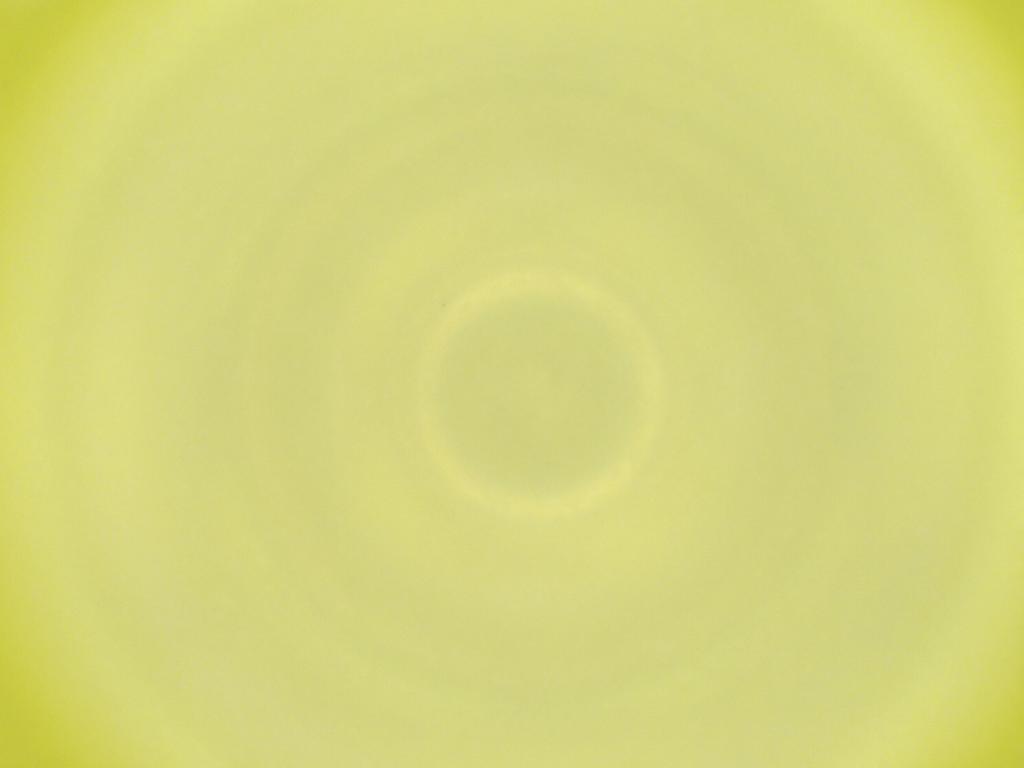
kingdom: Animalia
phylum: Arthropoda
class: Insecta
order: Diptera
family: Cecidomyiidae
